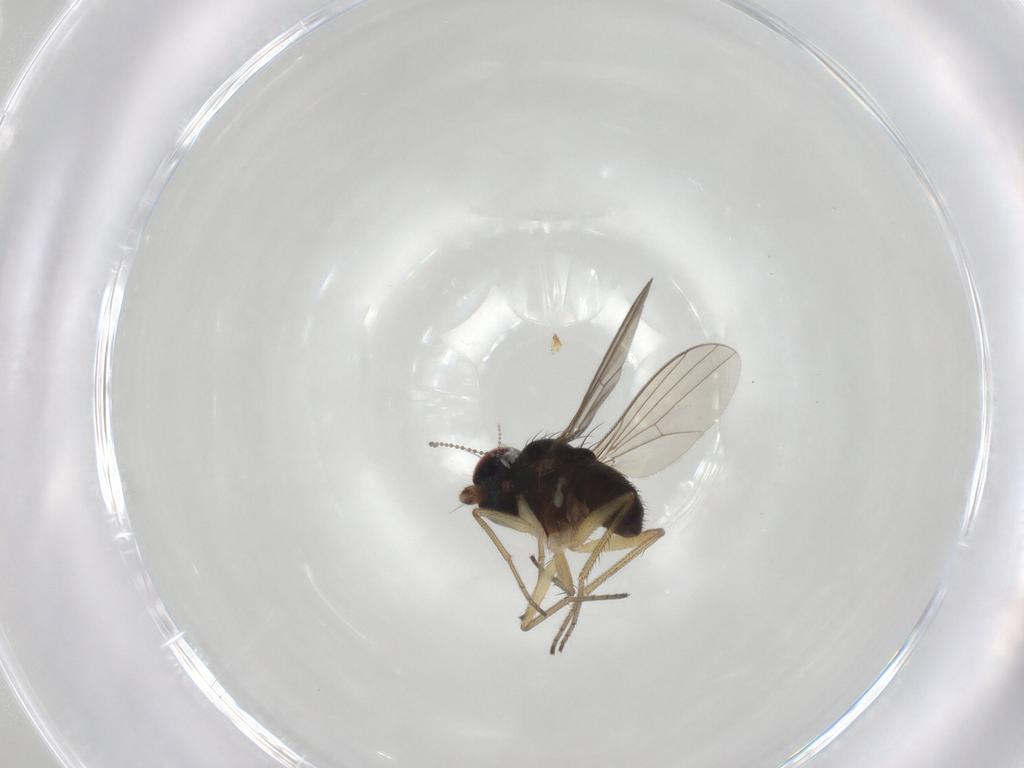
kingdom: Animalia
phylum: Arthropoda
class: Insecta
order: Diptera
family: Dolichopodidae
